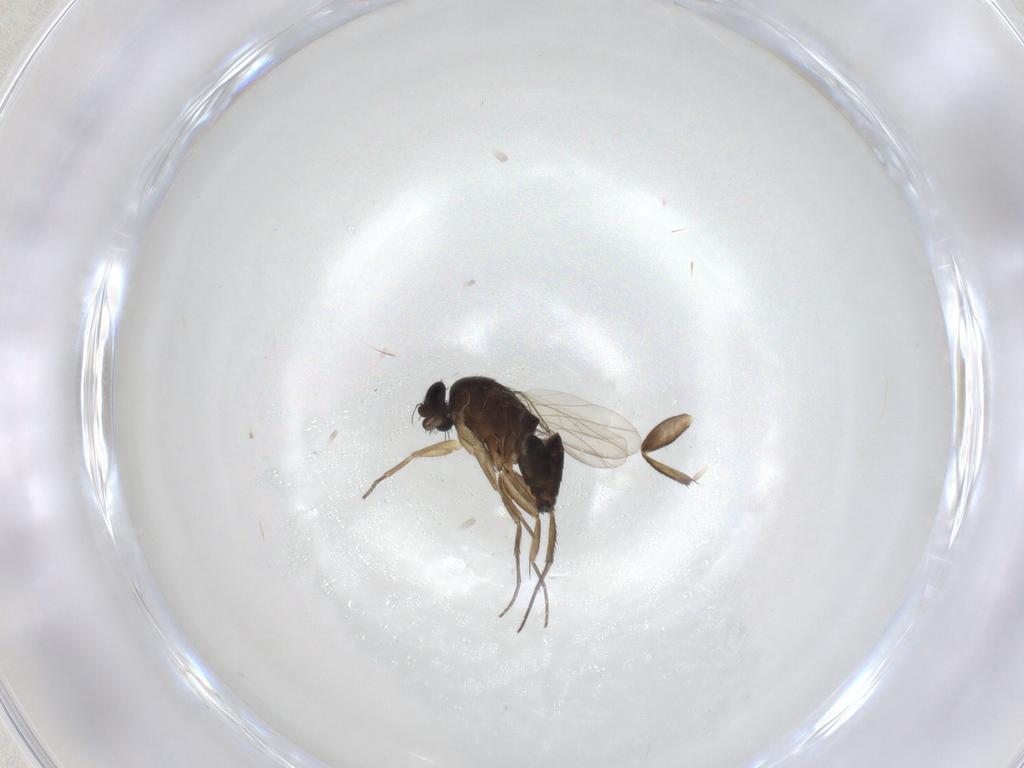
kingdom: Animalia
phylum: Arthropoda
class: Insecta
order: Diptera
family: Phoridae
